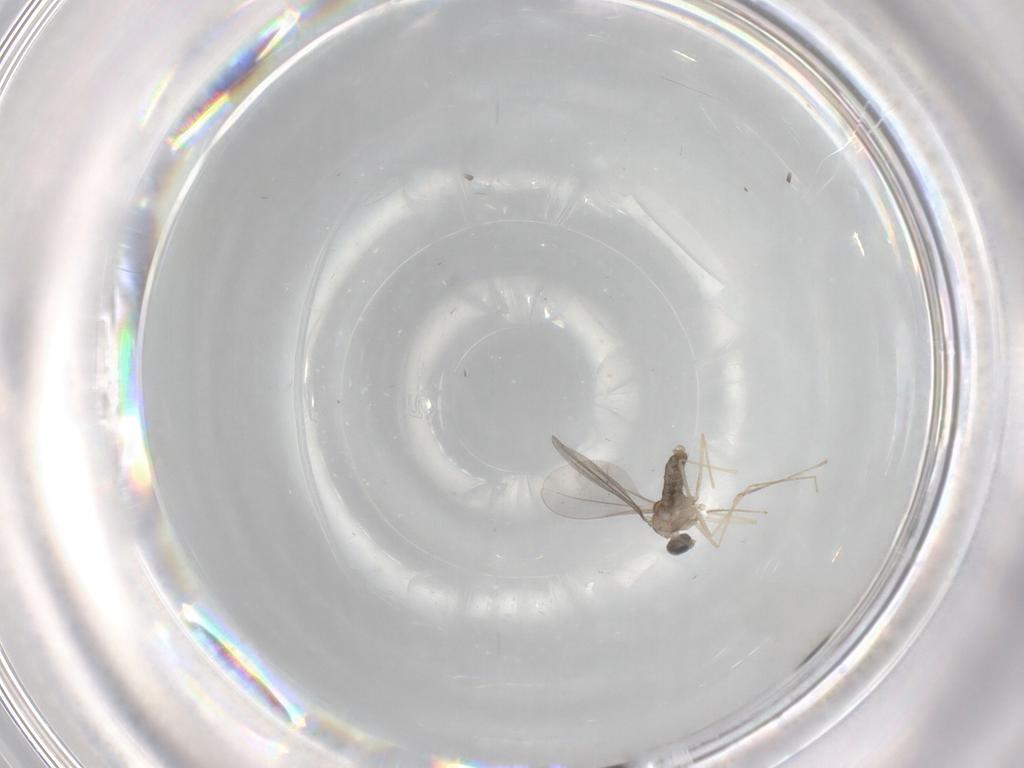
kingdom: Animalia
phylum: Arthropoda
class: Insecta
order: Diptera
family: Cecidomyiidae
